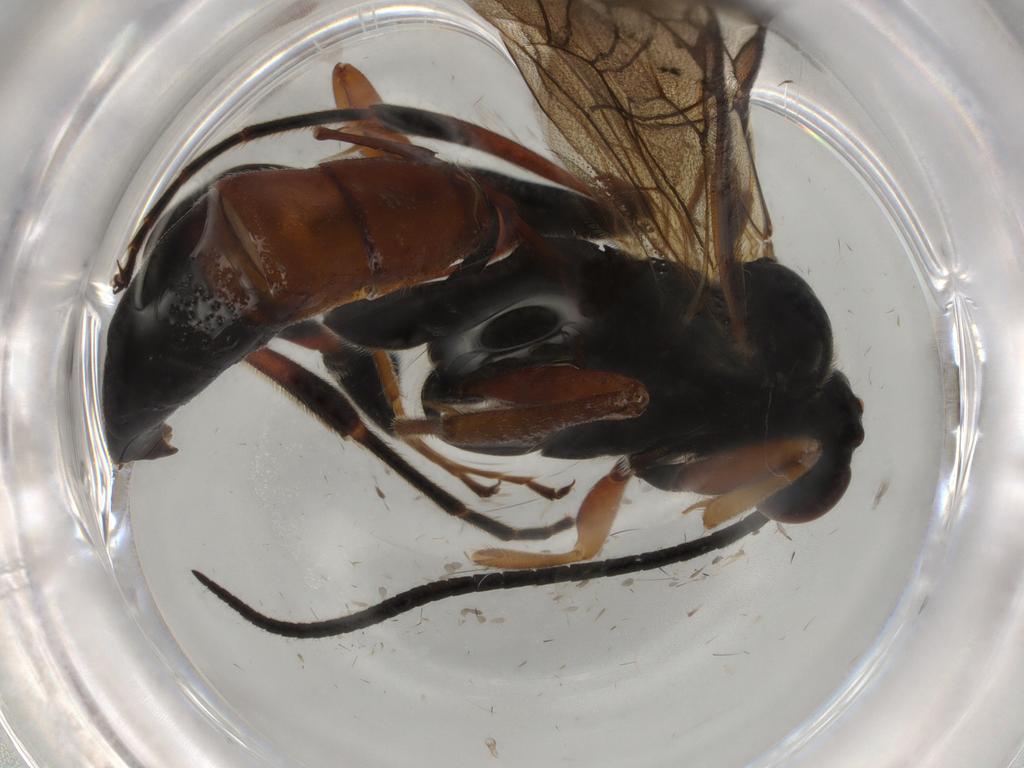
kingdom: Animalia
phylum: Arthropoda
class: Insecta
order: Hymenoptera
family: Ichneumonidae
